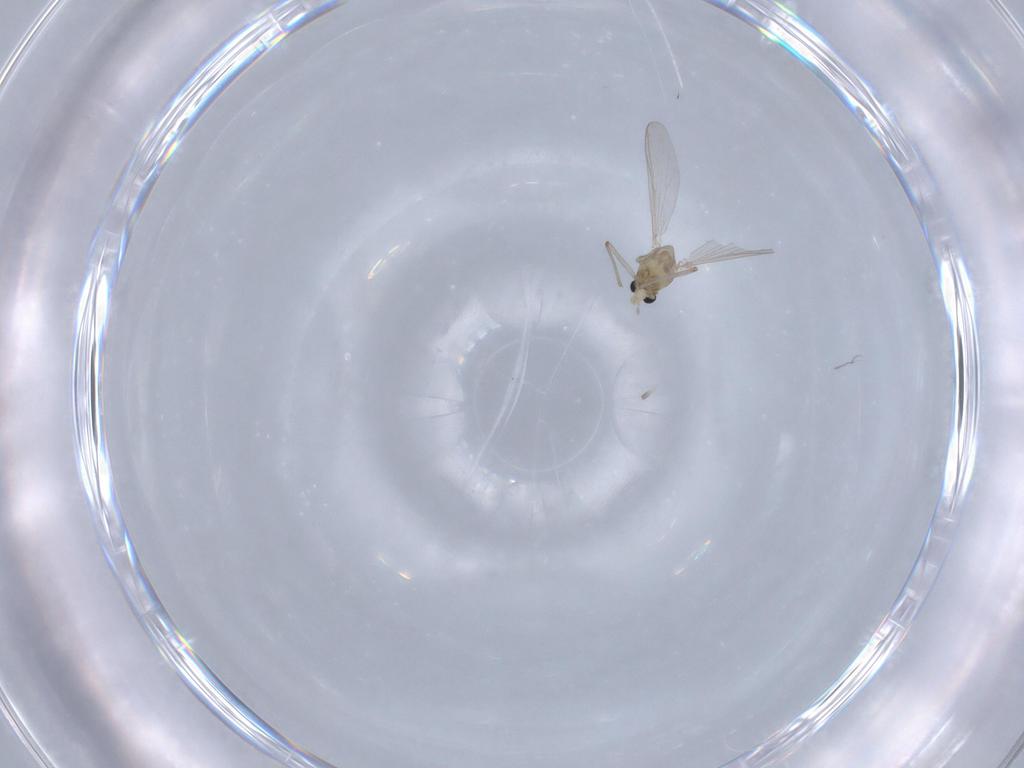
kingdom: Animalia
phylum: Arthropoda
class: Insecta
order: Diptera
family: Chironomidae
